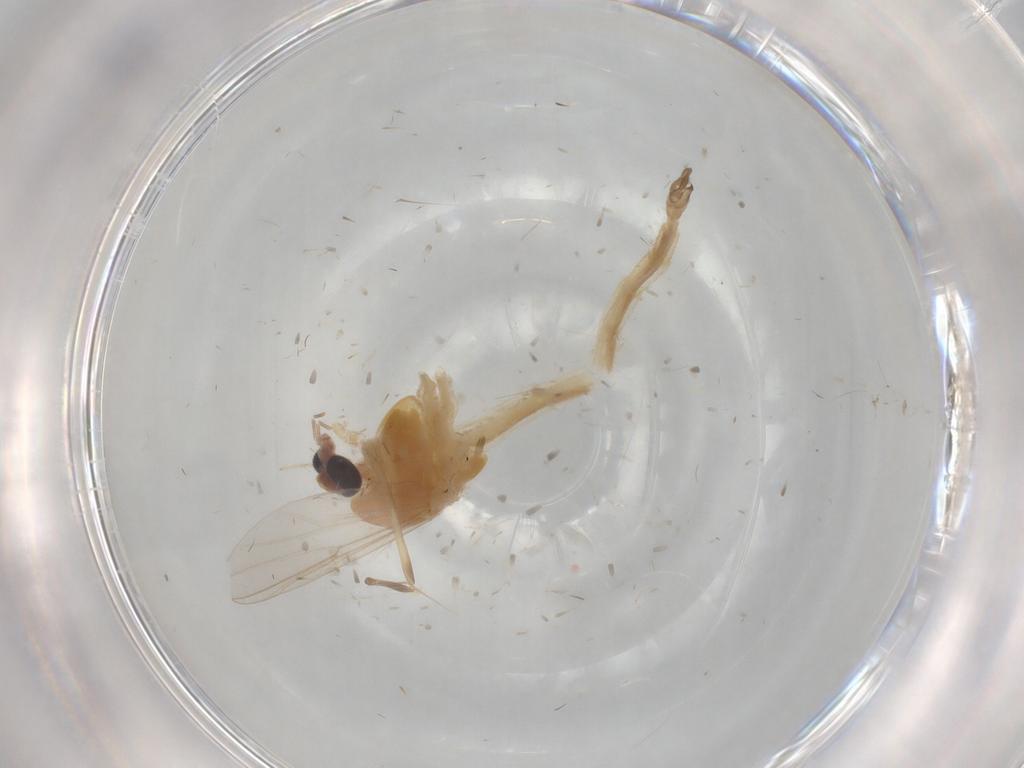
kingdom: Animalia
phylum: Arthropoda
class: Insecta
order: Diptera
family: Chironomidae
